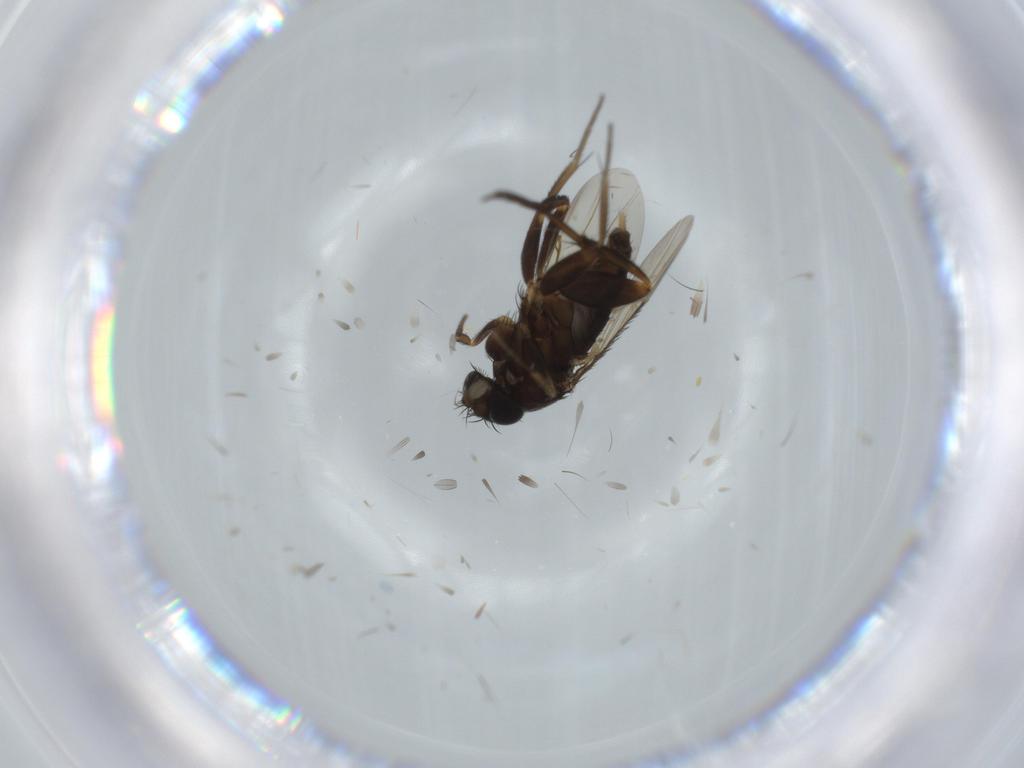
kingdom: Animalia
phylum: Arthropoda
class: Insecta
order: Diptera
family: Phoridae
